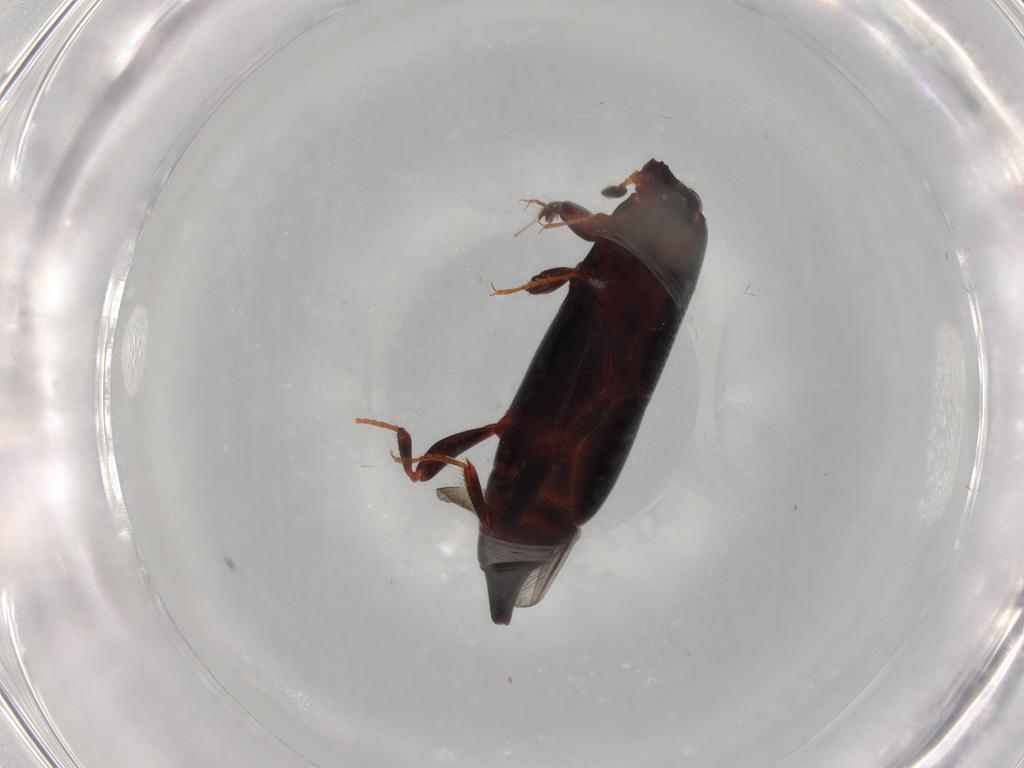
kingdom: Animalia
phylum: Arthropoda
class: Insecta
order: Coleoptera
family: Histeridae
